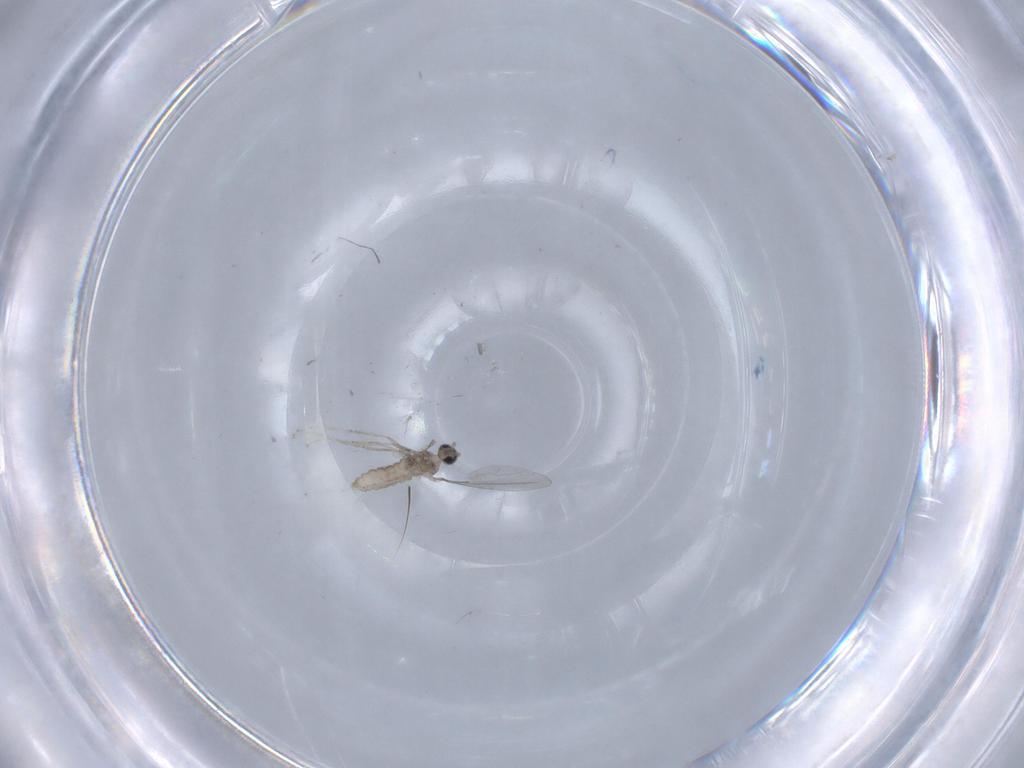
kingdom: Animalia
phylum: Arthropoda
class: Insecta
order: Diptera
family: Cecidomyiidae
